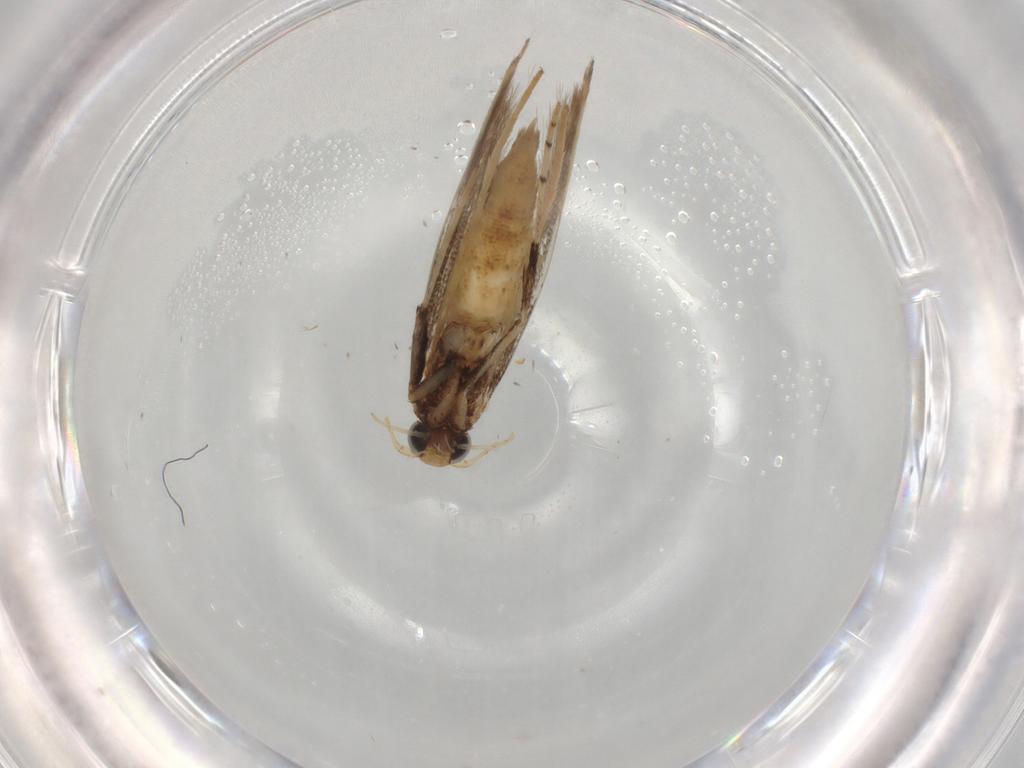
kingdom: Animalia
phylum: Arthropoda
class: Insecta
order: Lepidoptera
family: Gracillariidae
